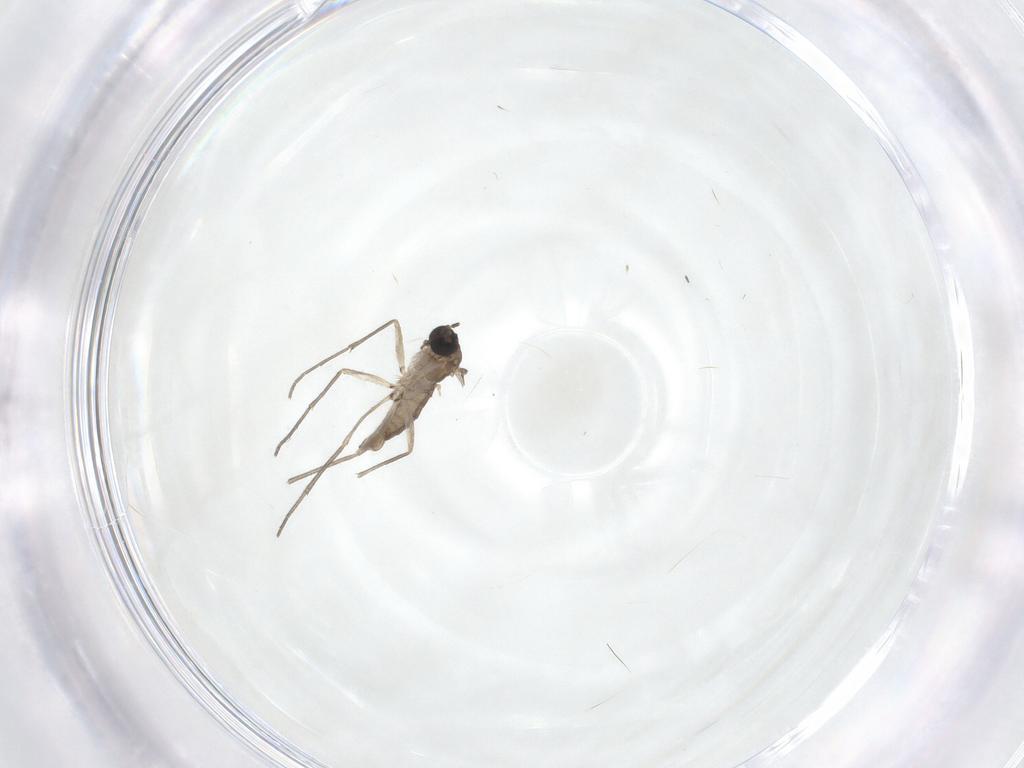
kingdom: Animalia
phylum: Arthropoda
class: Insecta
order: Diptera
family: Sciaridae
